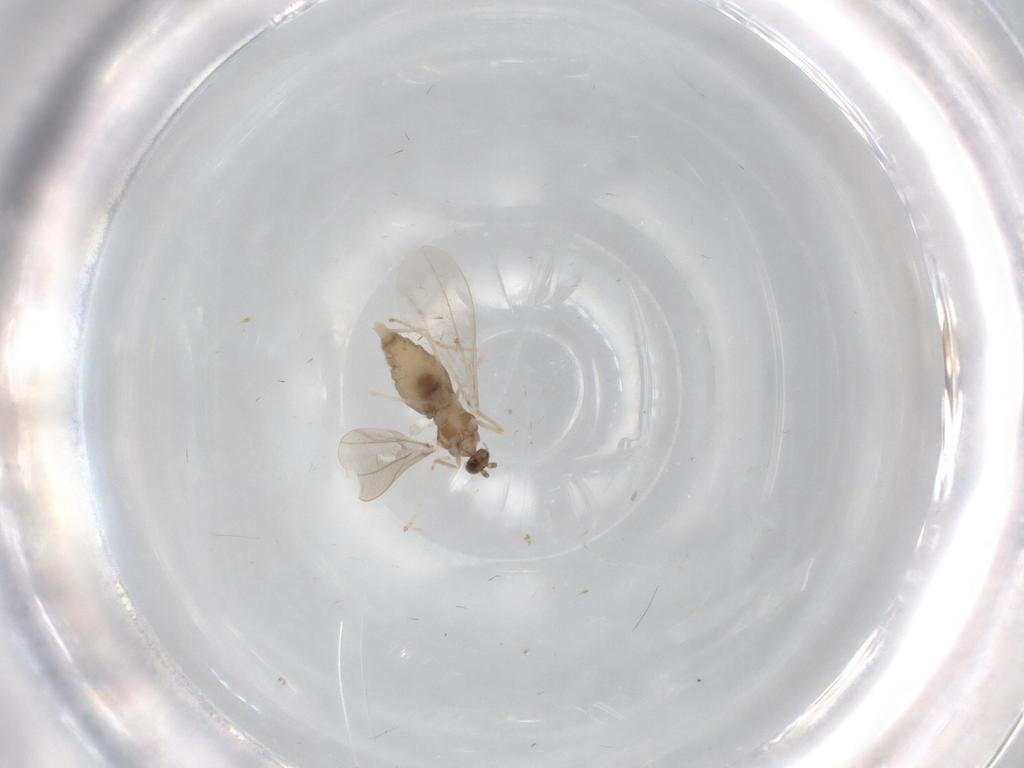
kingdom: Animalia
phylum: Arthropoda
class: Insecta
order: Diptera
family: Cecidomyiidae
